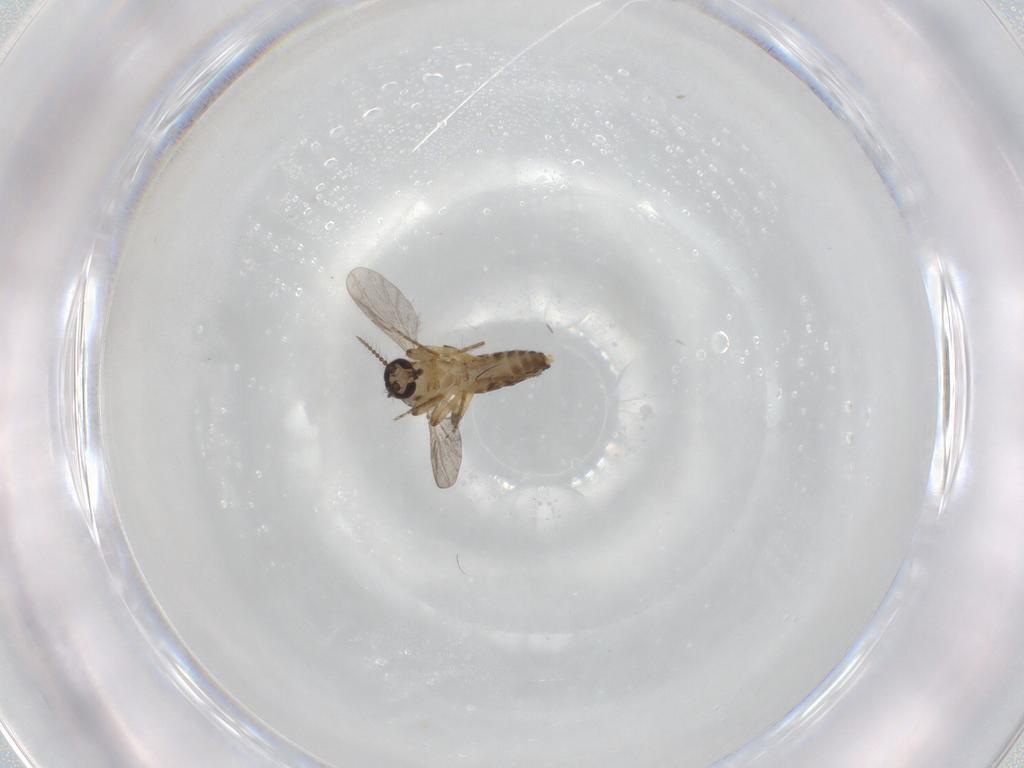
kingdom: Animalia
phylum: Arthropoda
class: Insecta
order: Diptera
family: Ceratopogonidae
